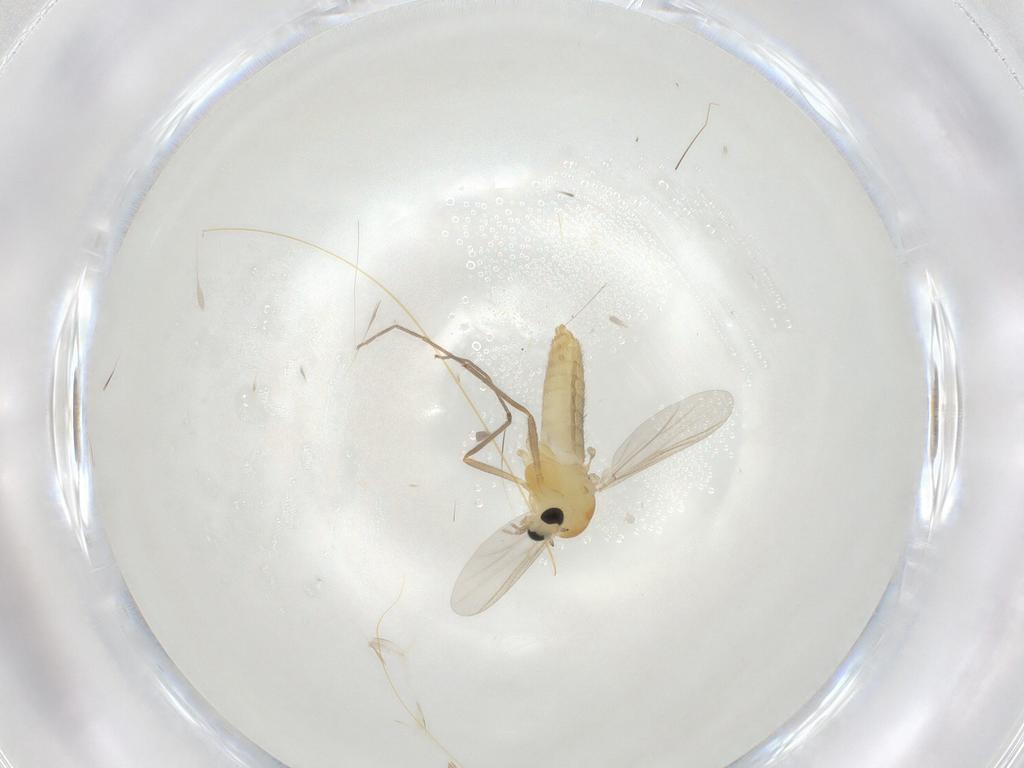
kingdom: Animalia
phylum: Arthropoda
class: Insecta
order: Diptera
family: Chironomidae
